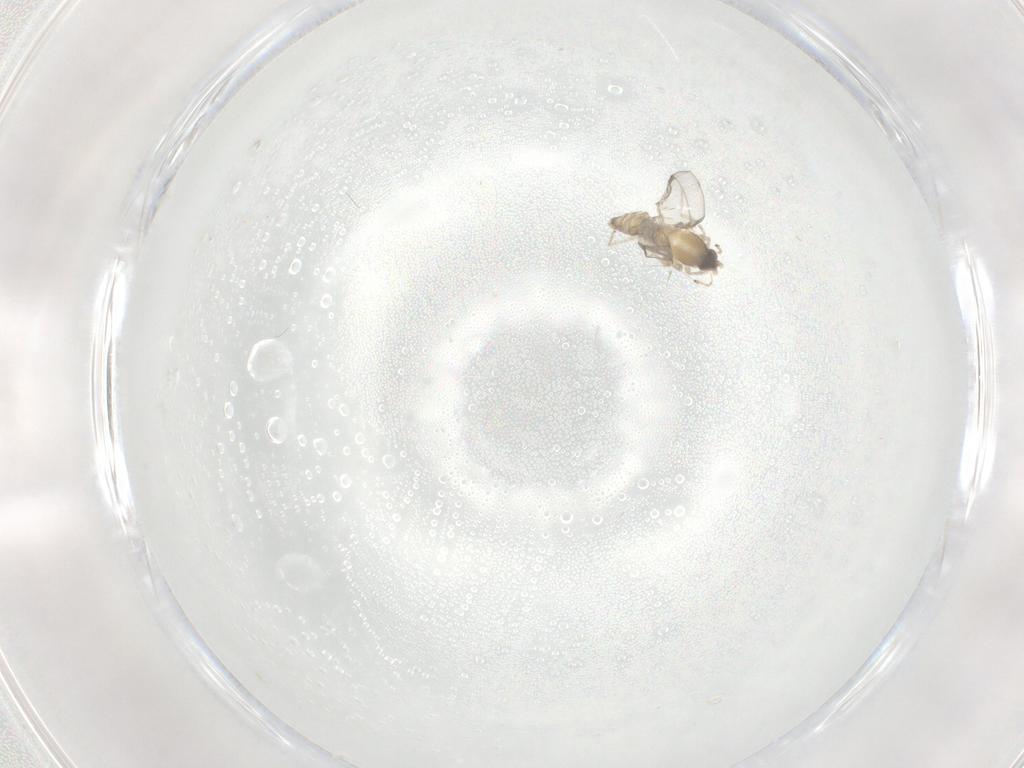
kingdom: Animalia
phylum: Arthropoda
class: Insecta
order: Diptera
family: Cecidomyiidae
